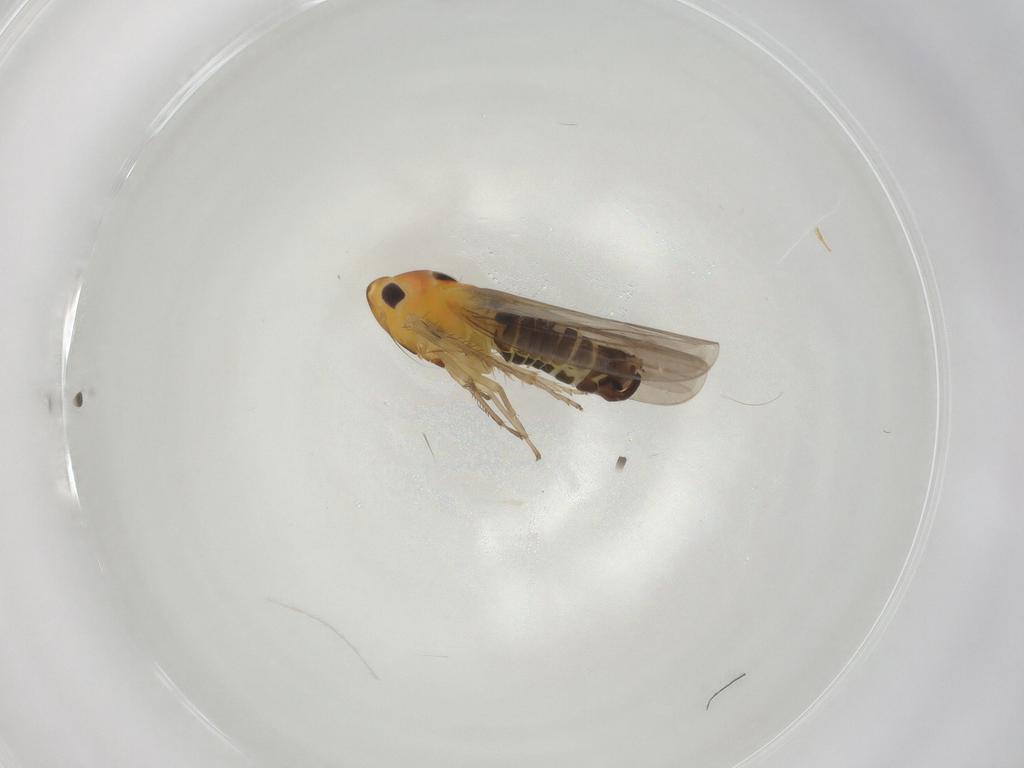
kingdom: Animalia
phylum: Arthropoda
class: Insecta
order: Hemiptera
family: Cicadellidae
